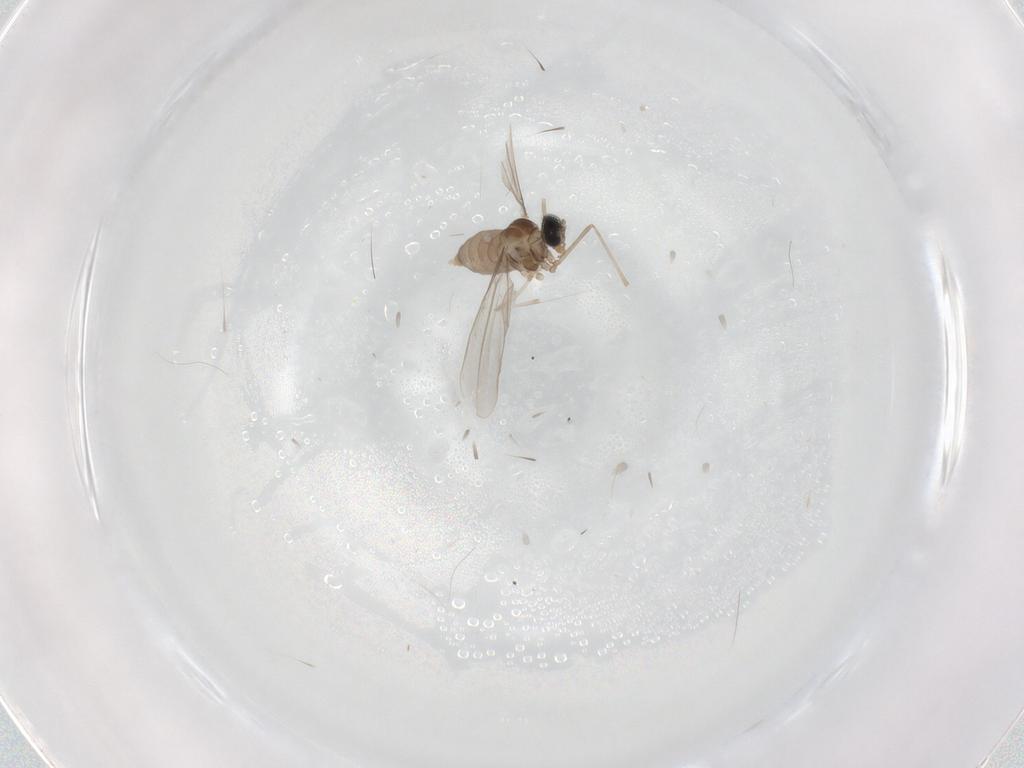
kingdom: Animalia
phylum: Arthropoda
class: Insecta
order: Diptera
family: Cecidomyiidae
